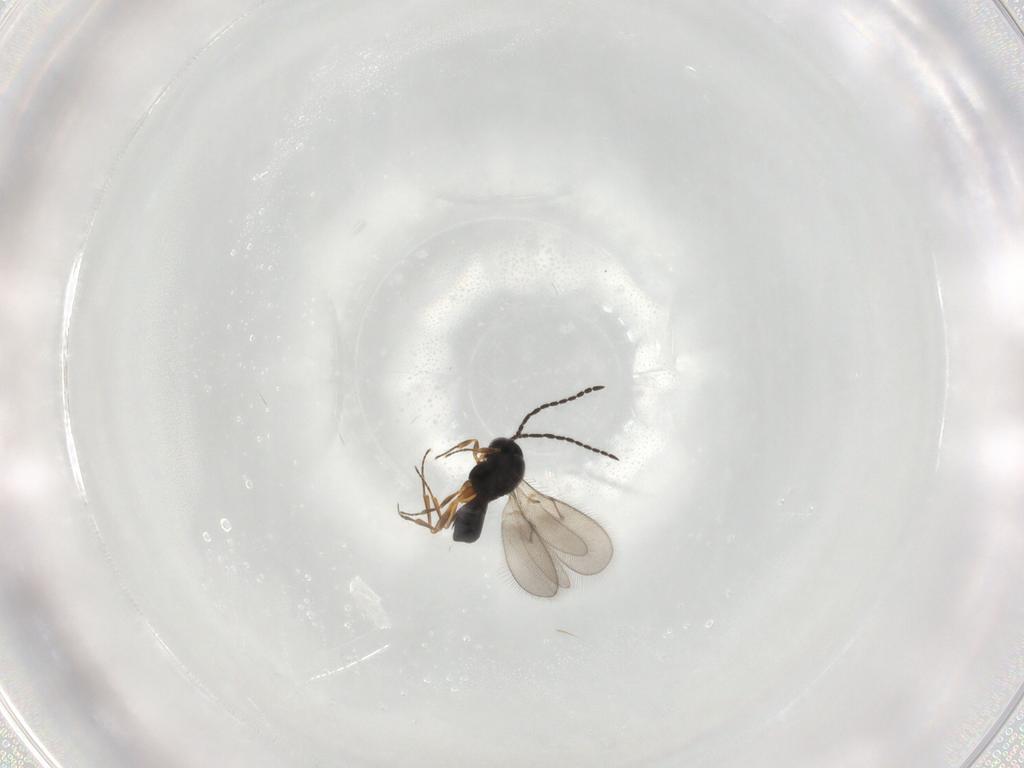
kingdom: Animalia
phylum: Arthropoda
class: Insecta
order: Hymenoptera
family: Scelionidae
